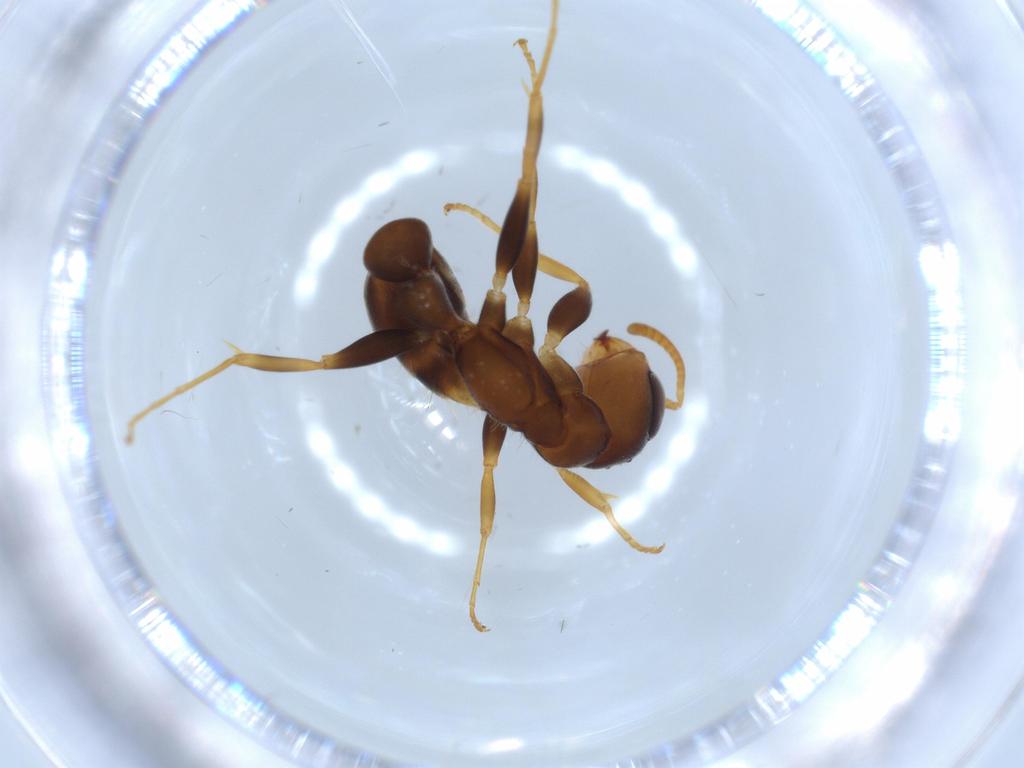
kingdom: Animalia
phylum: Arthropoda
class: Insecta
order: Hymenoptera
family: Formicidae
